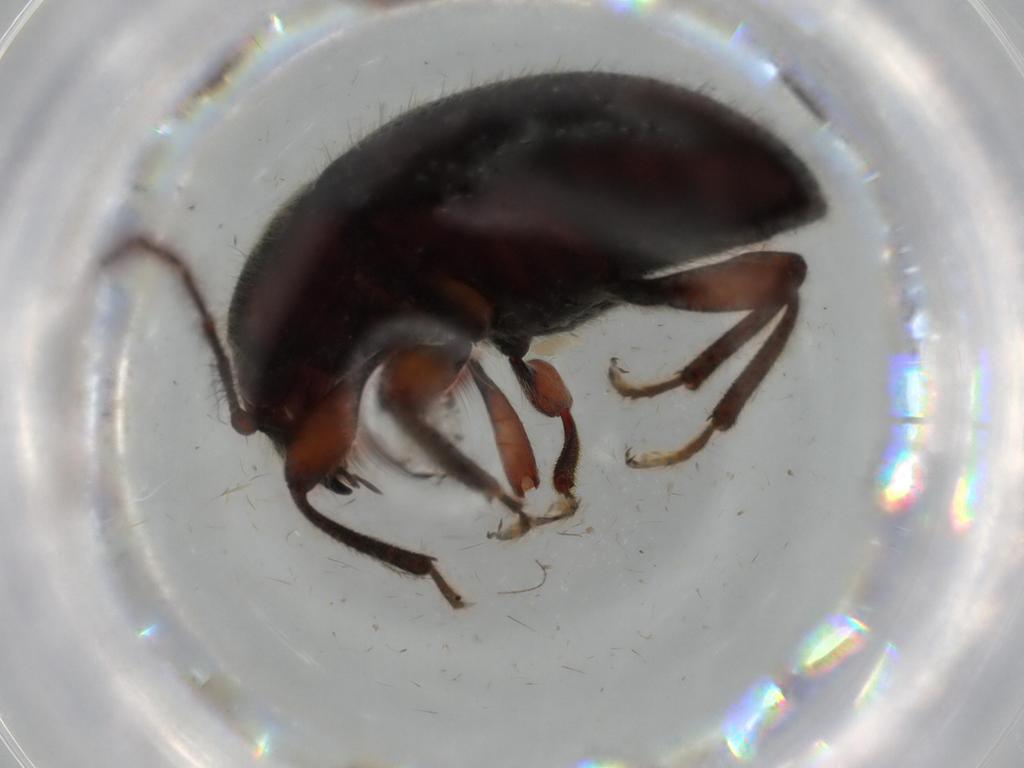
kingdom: Animalia
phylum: Arthropoda
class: Insecta
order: Coleoptera
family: Artematopodidae
